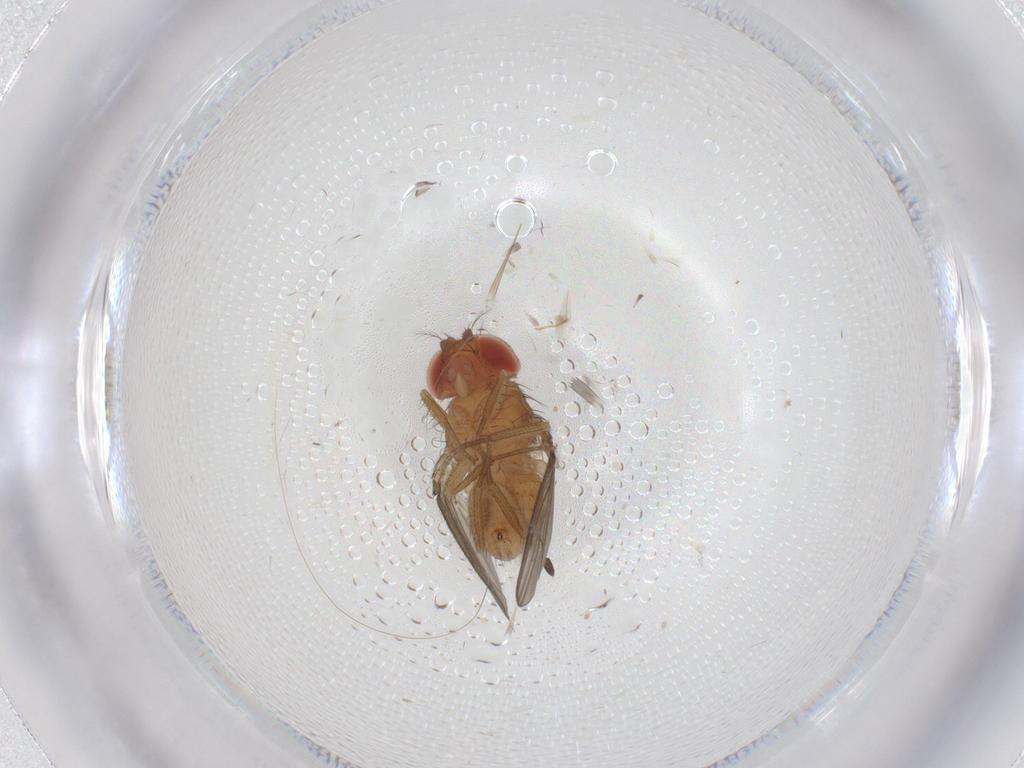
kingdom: Animalia
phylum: Arthropoda
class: Insecta
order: Diptera
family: Drosophilidae
